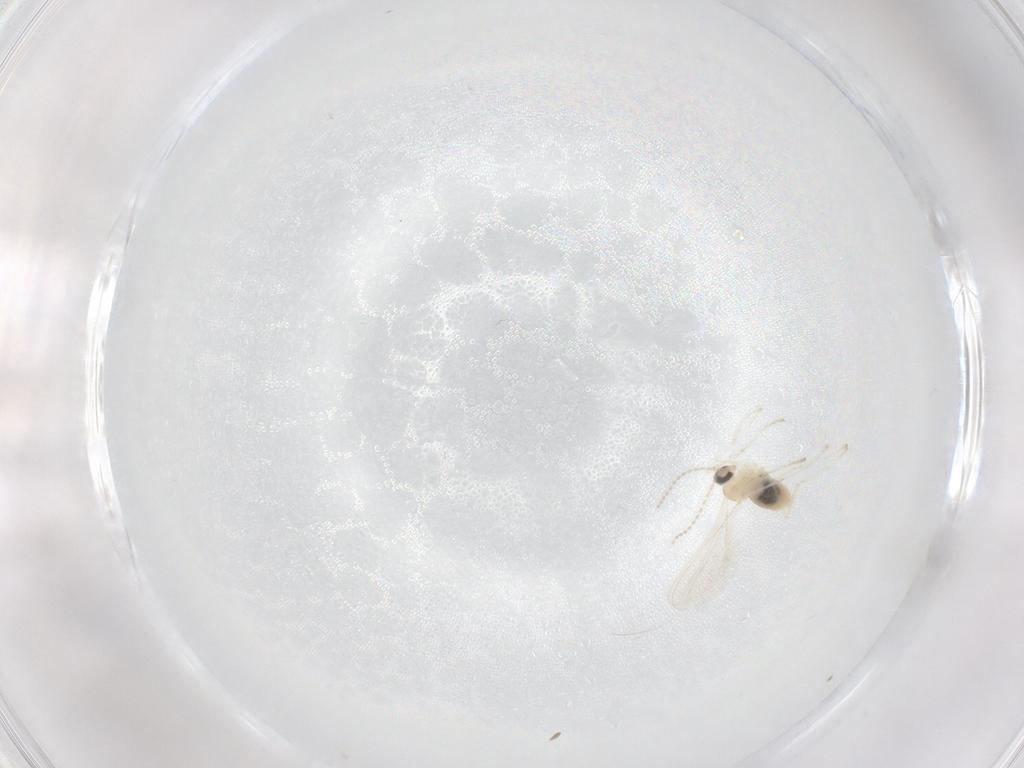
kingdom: Animalia
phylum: Arthropoda
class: Insecta
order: Diptera
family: Cecidomyiidae
